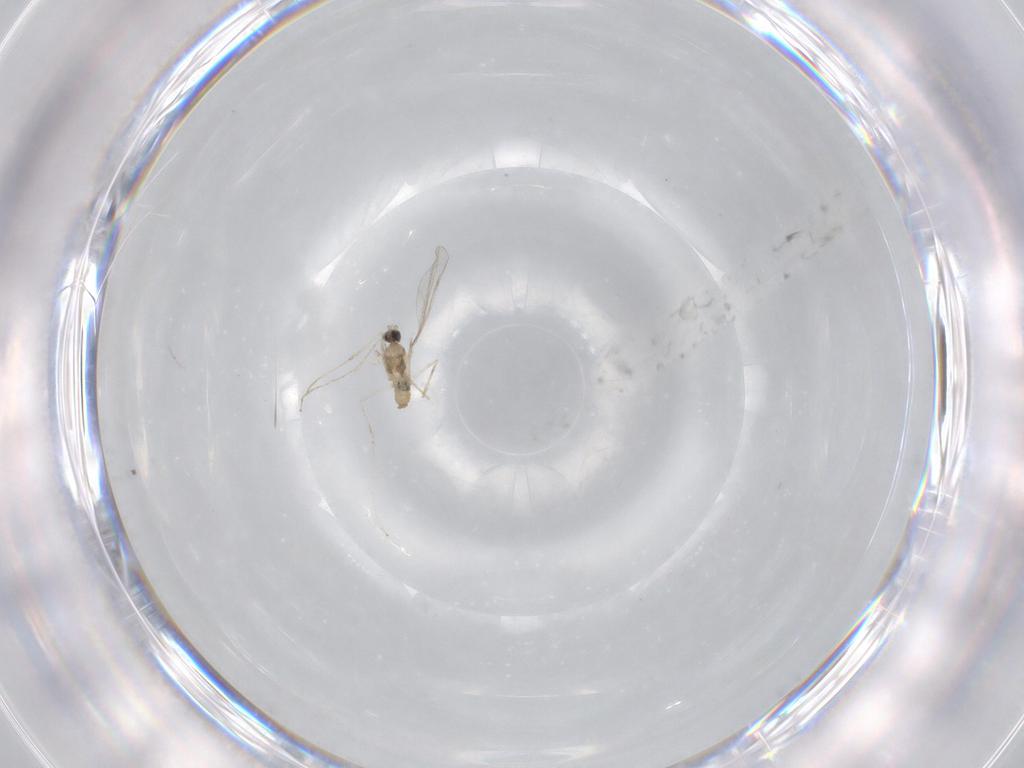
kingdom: Animalia
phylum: Arthropoda
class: Insecta
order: Diptera
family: Cecidomyiidae
